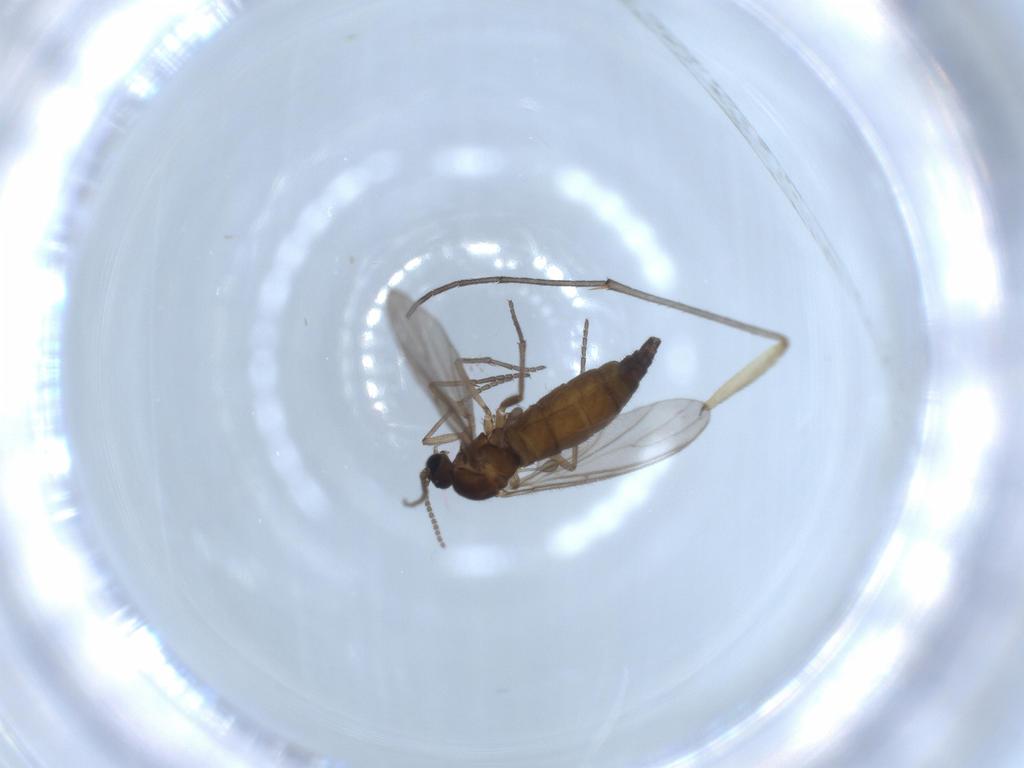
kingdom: Animalia
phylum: Arthropoda
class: Insecta
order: Diptera
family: Sciaridae
